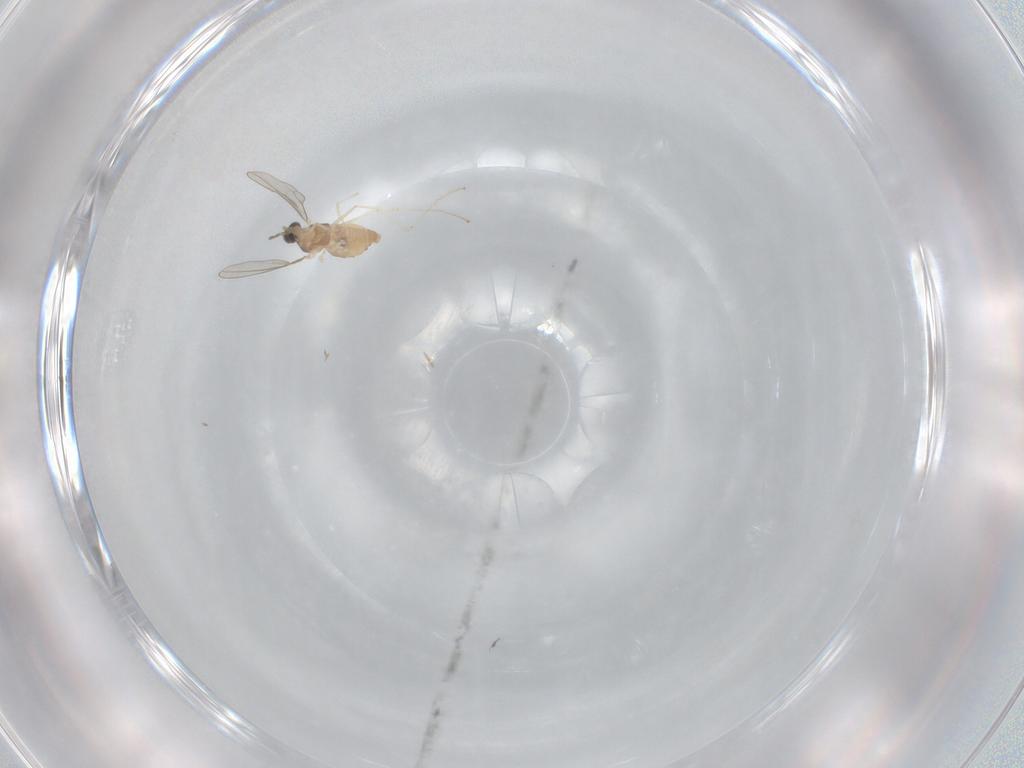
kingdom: Animalia
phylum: Arthropoda
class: Insecta
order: Diptera
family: Cecidomyiidae
